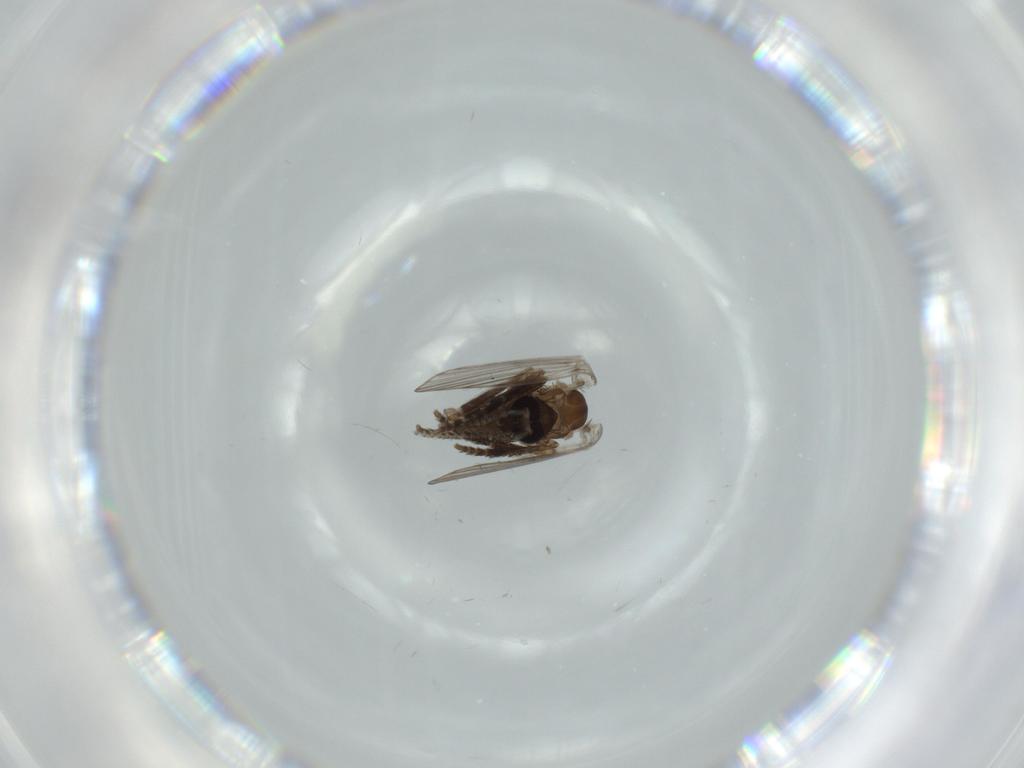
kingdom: Animalia
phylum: Arthropoda
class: Insecta
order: Diptera
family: Psychodidae
